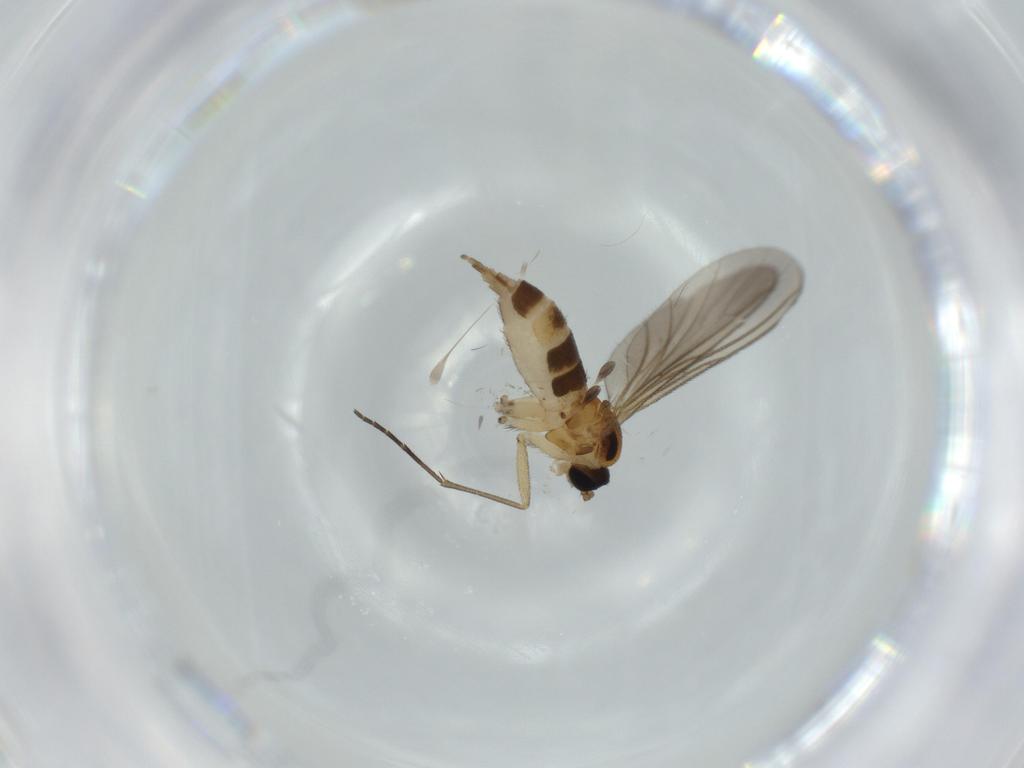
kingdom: Animalia
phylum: Arthropoda
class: Insecta
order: Diptera
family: Sciaridae
